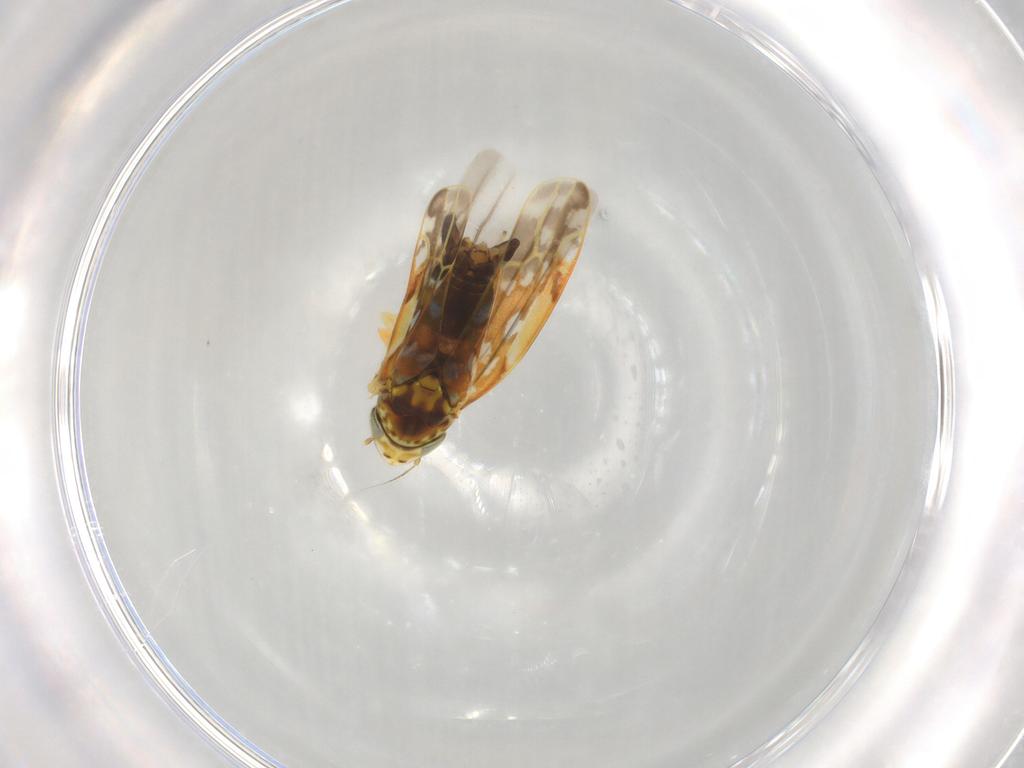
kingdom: Animalia
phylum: Arthropoda
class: Insecta
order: Hemiptera
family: Cicadellidae
